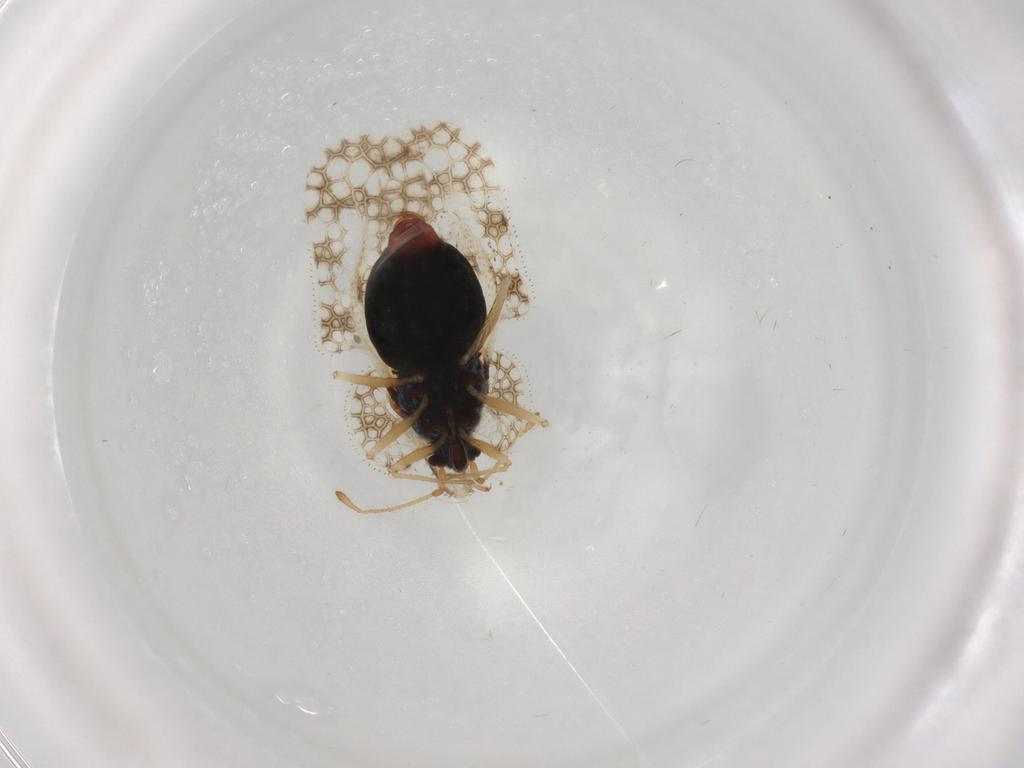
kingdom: Animalia
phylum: Arthropoda
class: Insecta
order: Hemiptera
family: Tingidae
